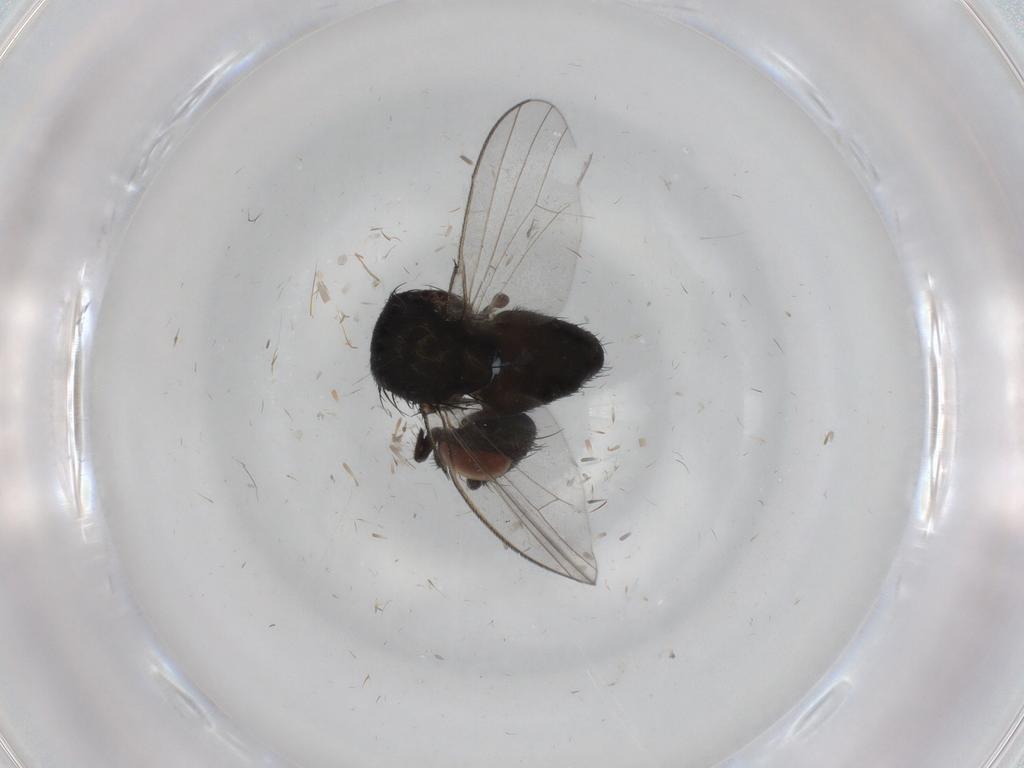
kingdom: Animalia
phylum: Arthropoda
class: Insecta
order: Diptera
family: Milichiidae
